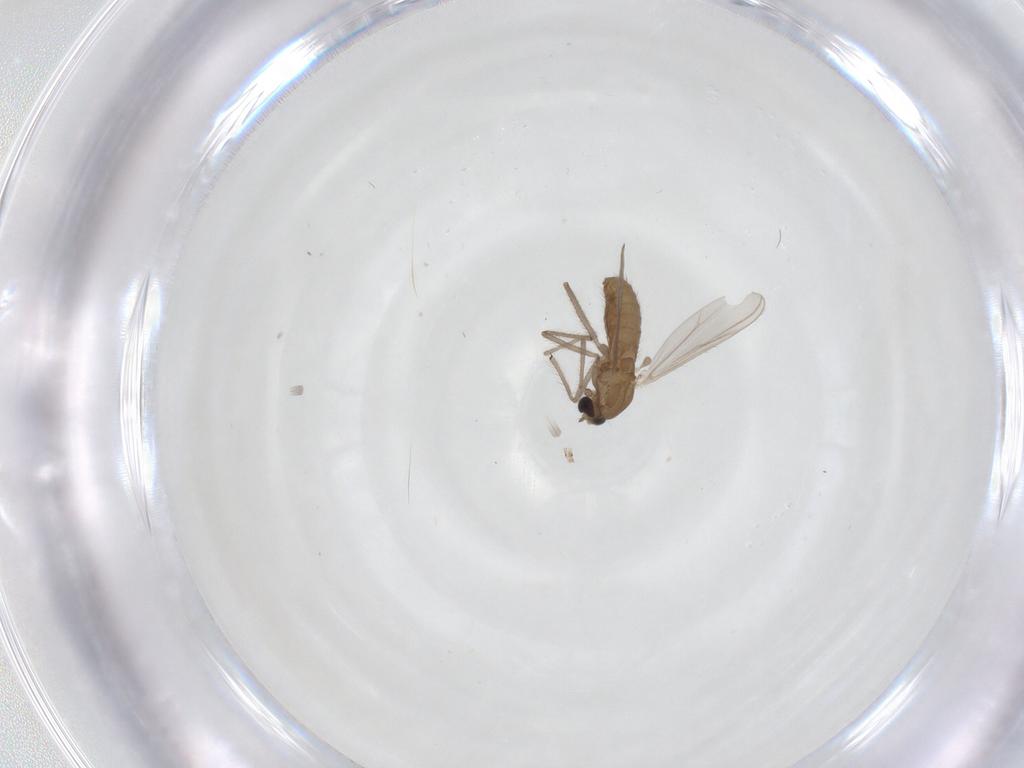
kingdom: Animalia
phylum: Arthropoda
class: Insecta
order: Diptera
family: Chironomidae
